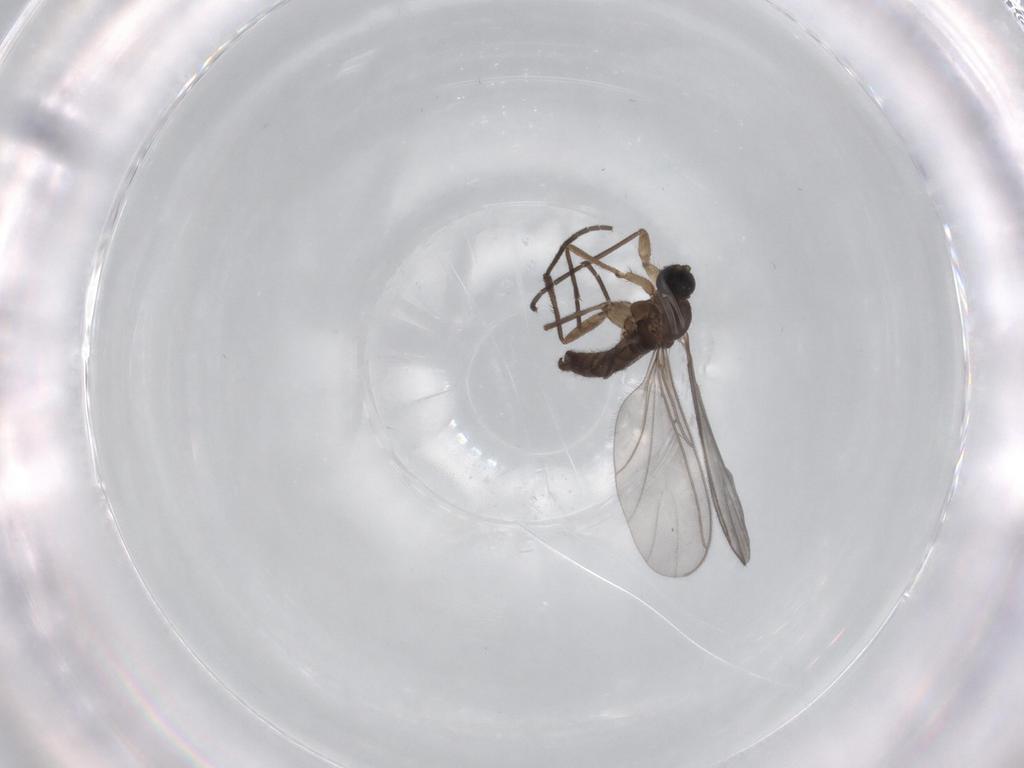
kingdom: Animalia
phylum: Arthropoda
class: Insecta
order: Diptera
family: Sciaridae
